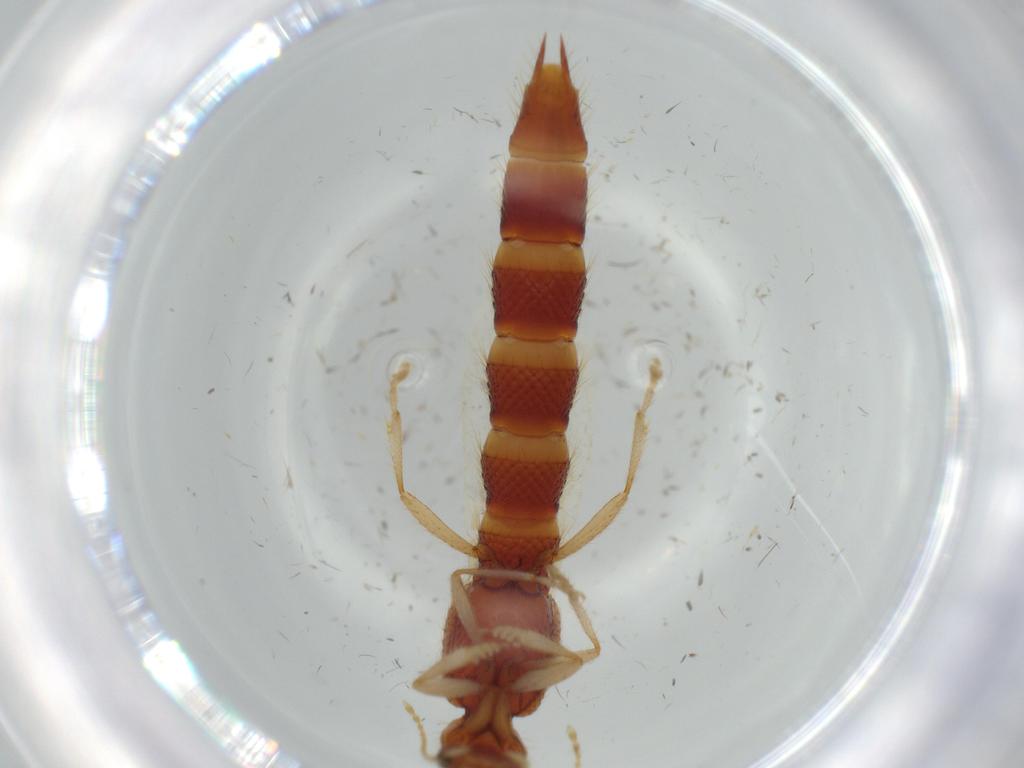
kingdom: Animalia
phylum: Arthropoda
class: Insecta
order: Coleoptera
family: Staphylinidae
